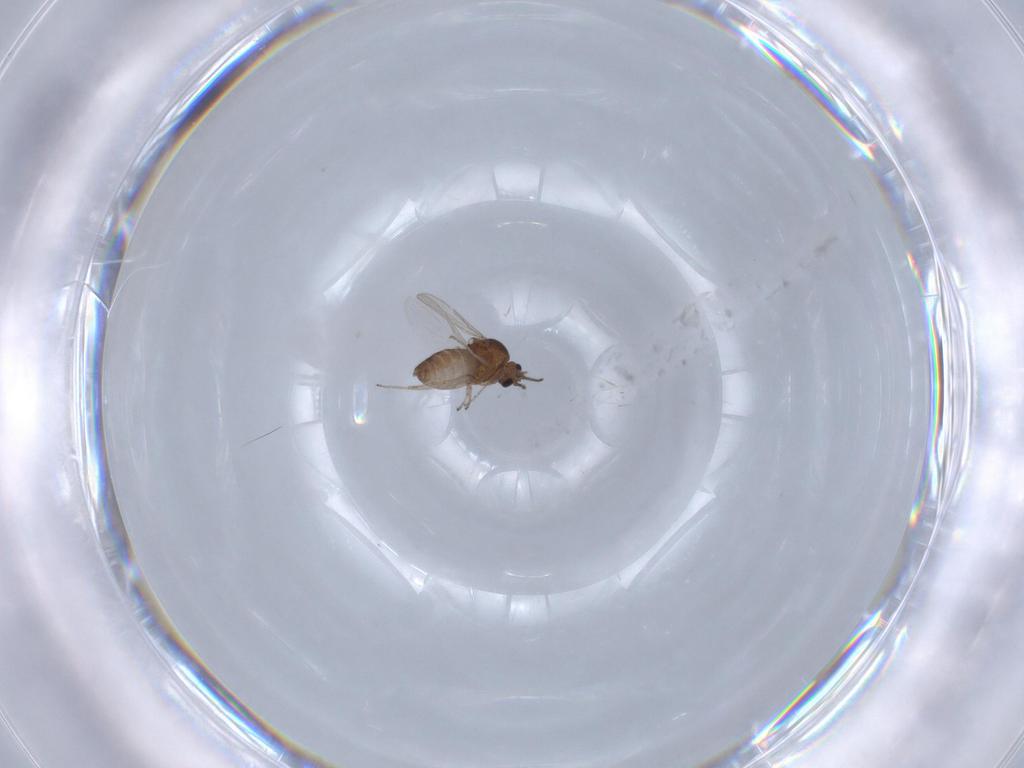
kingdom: Animalia
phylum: Arthropoda
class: Insecta
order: Diptera
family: Ceratopogonidae
